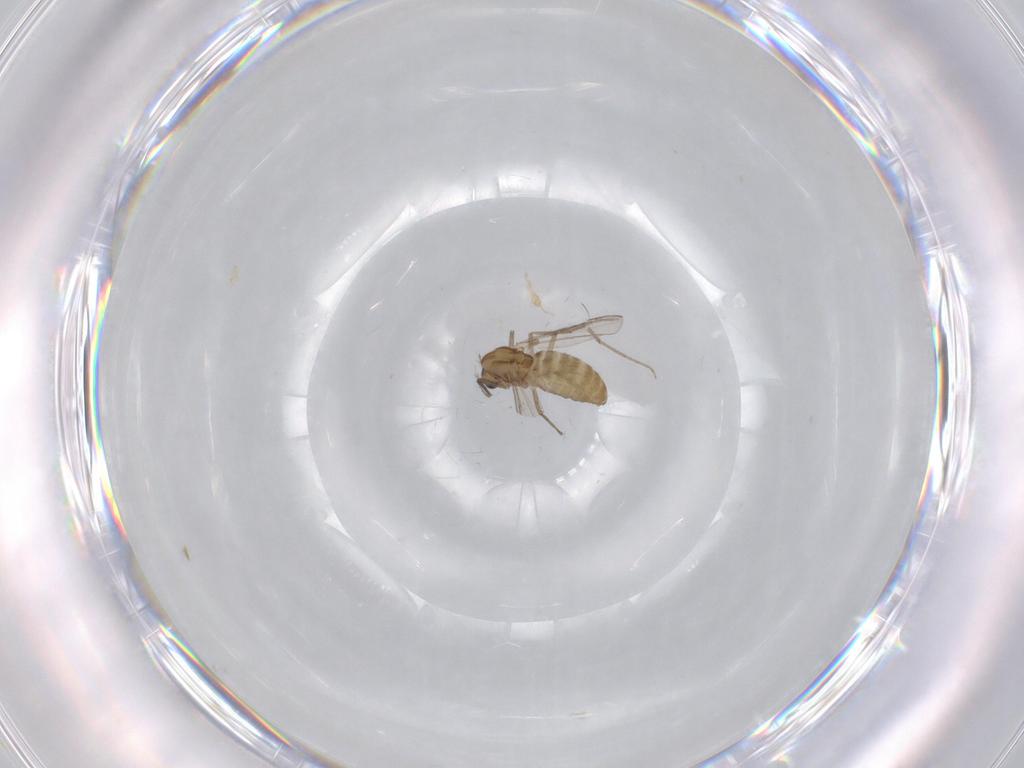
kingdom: Animalia
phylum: Arthropoda
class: Insecta
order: Diptera
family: Chironomidae
